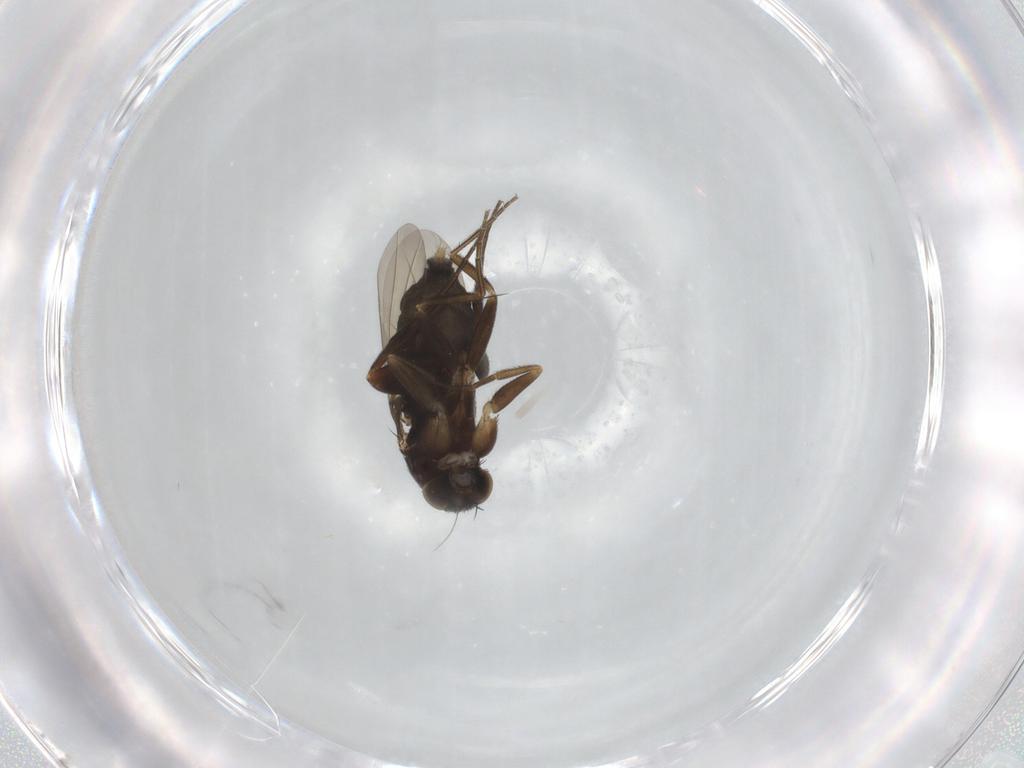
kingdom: Animalia
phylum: Arthropoda
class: Insecta
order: Diptera
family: Phoridae
